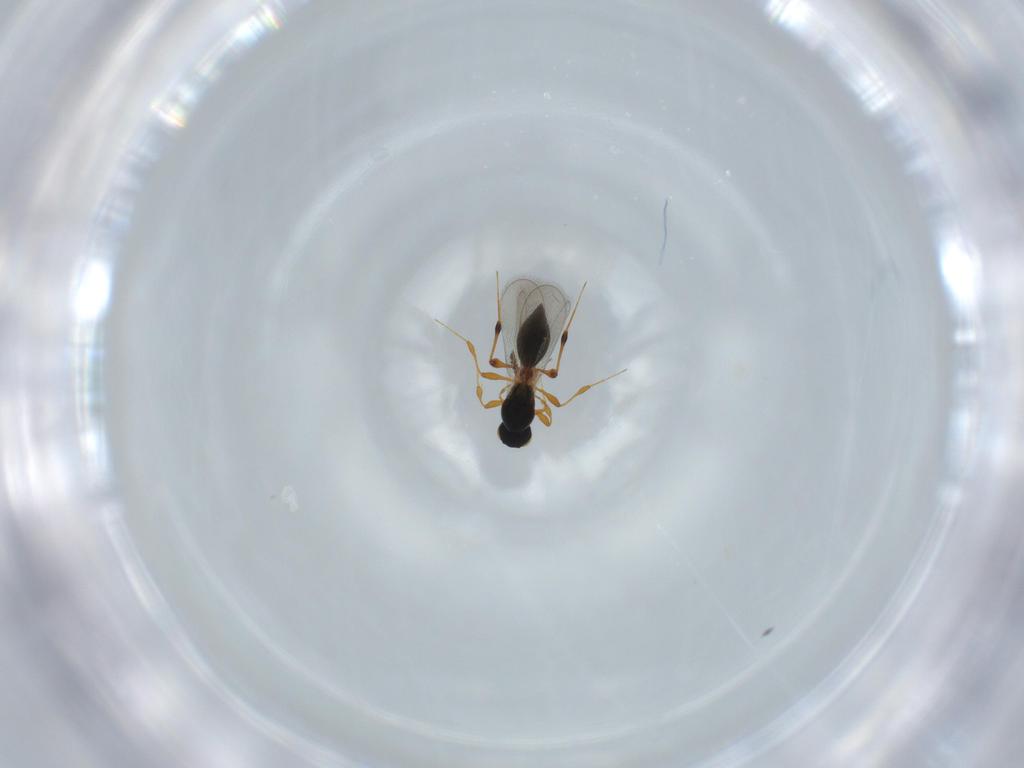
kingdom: Animalia
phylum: Arthropoda
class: Insecta
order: Hymenoptera
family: Platygastridae
